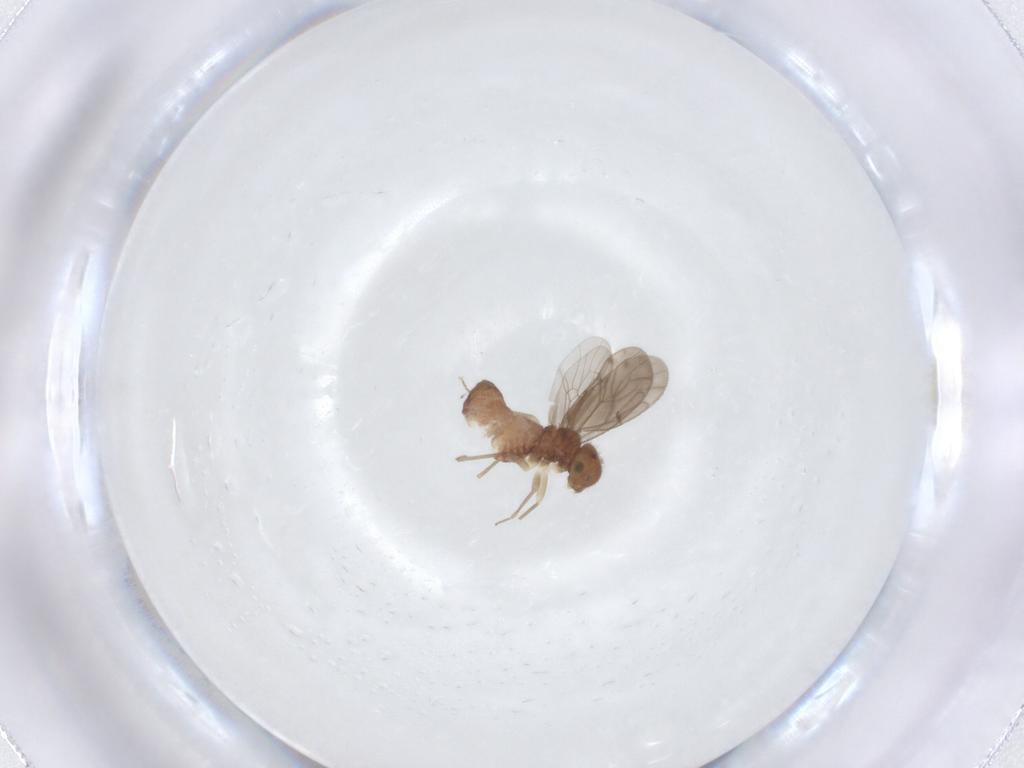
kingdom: Animalia
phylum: Arthropoda
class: Insecta
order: Psocodea
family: Ectopsocidae
